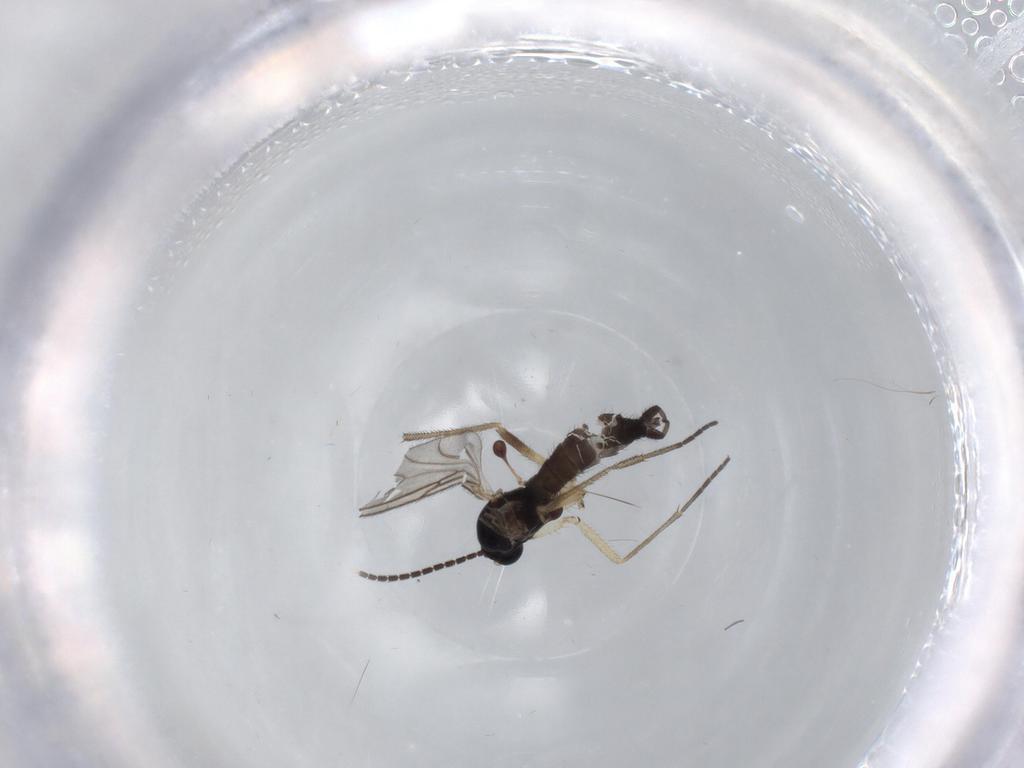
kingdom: Animalia
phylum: Arthropoda
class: Insecta
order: Diptera
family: Sciaridae
